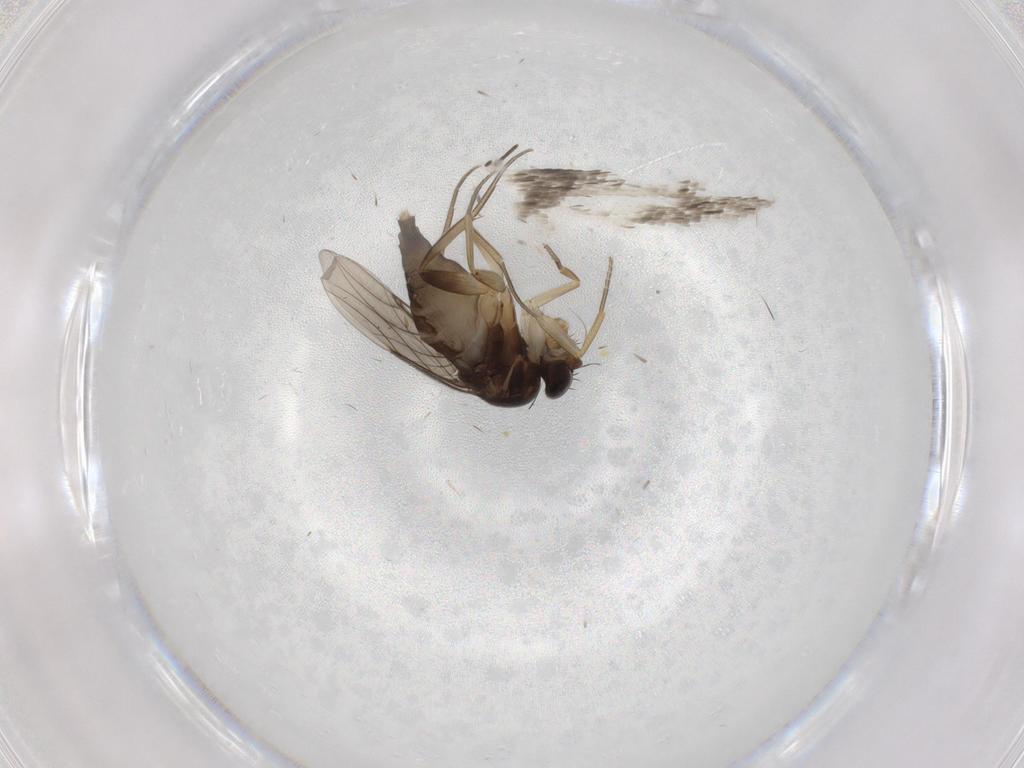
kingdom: Animalia
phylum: Arthropoda
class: Insecta
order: Diptera
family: Phoridae
